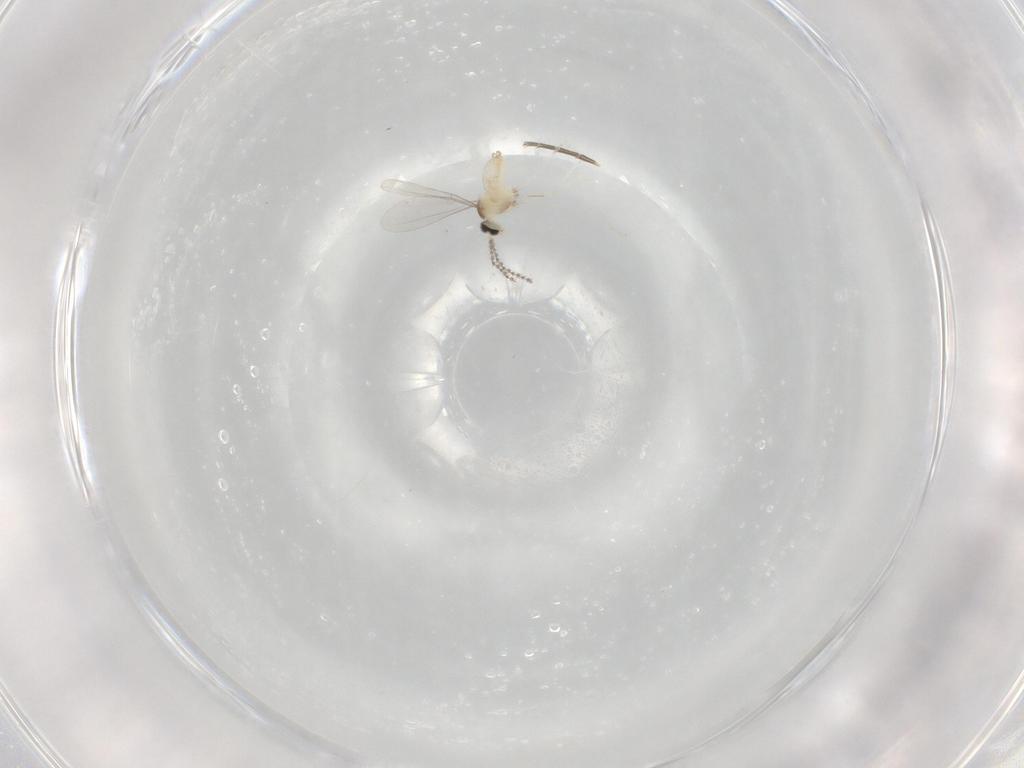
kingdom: Animalia
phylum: Arthropoda
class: Insecta
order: Diptera
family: Cecidomyiidae
